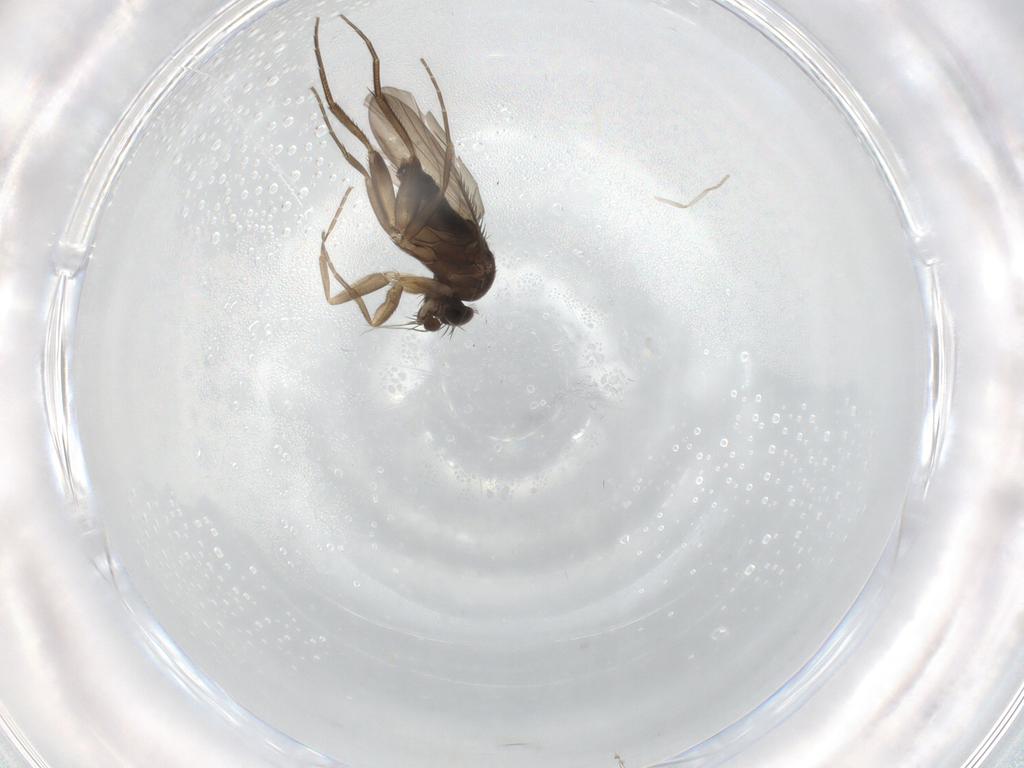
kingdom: Animalia
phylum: Arthropoda
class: Insecta
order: Diptera
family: Phoridae
